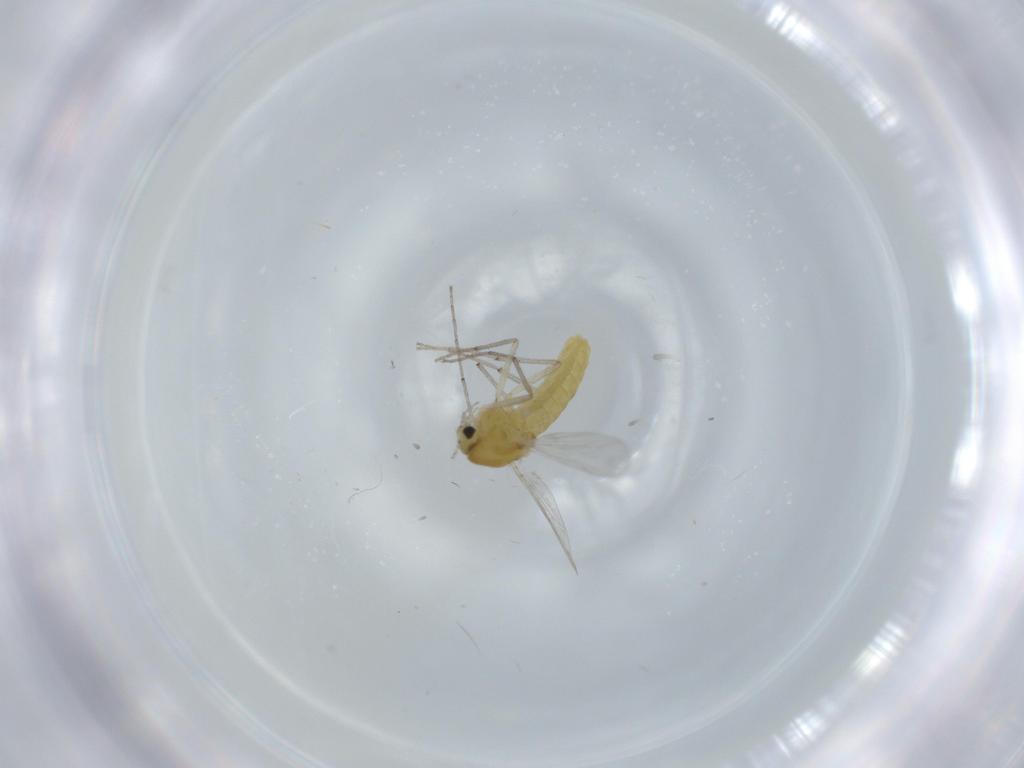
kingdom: Animalia
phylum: Arthropoda
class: Insecta
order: Diptera
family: Chironomidae
